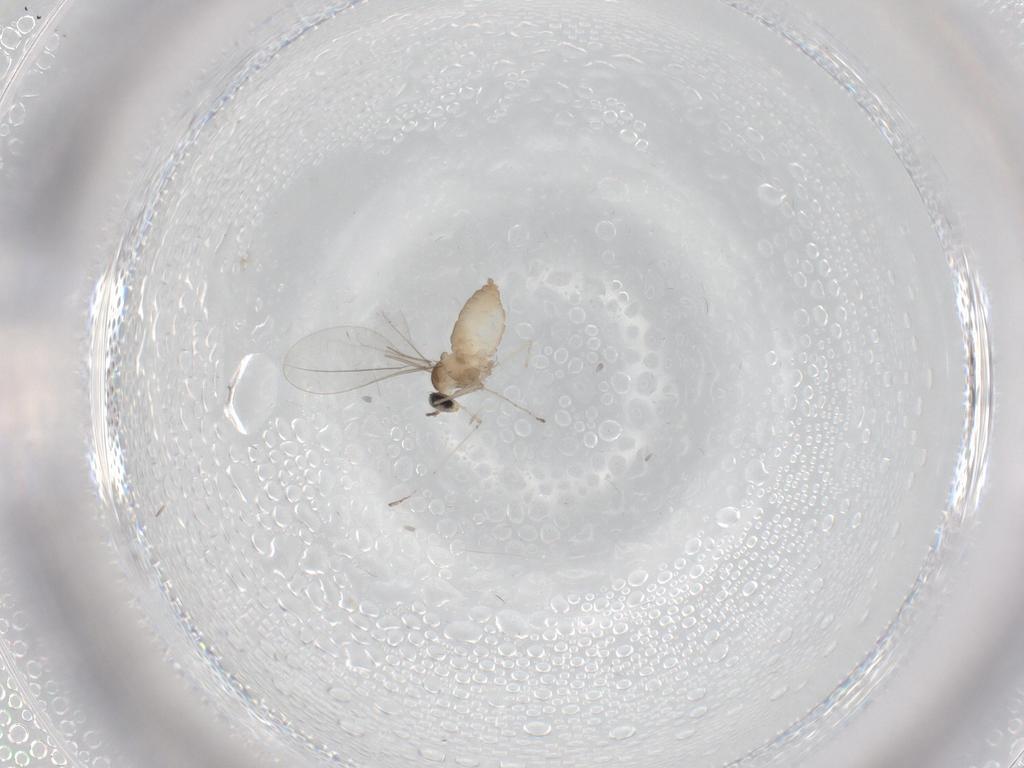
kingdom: Animalia
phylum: Arthropoda
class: Insecta
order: Diptera
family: Cecidomyiidae
